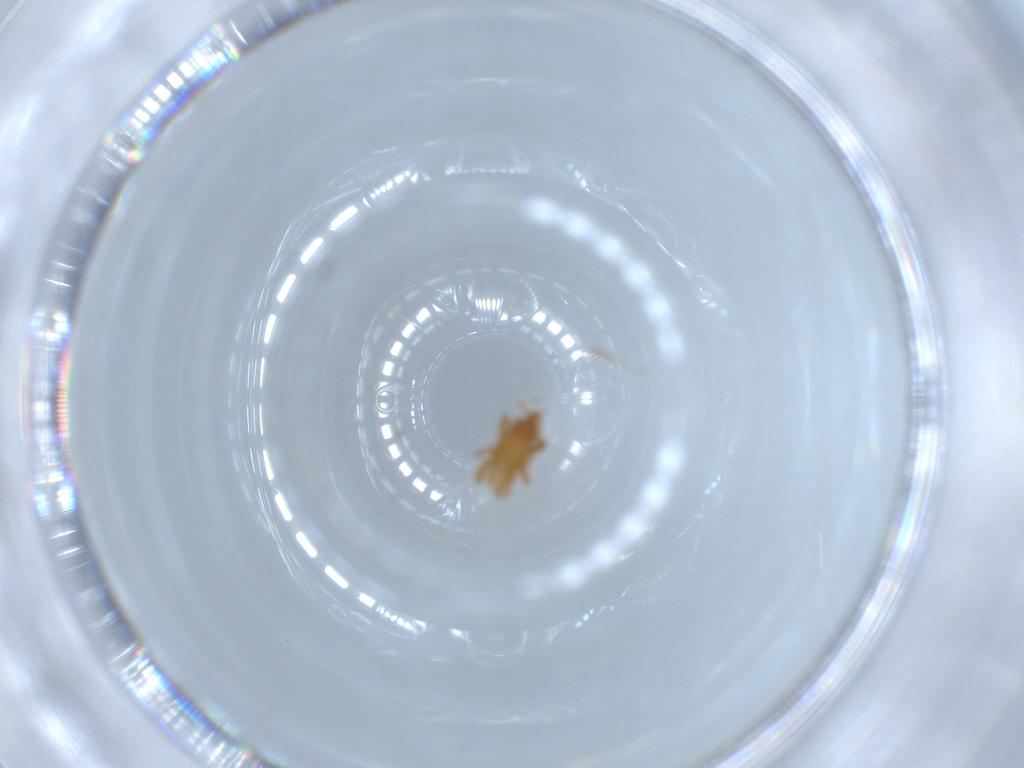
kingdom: Animalia
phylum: Arthropoda
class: Arachnida
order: Mesostigmata
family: Parasitidae
